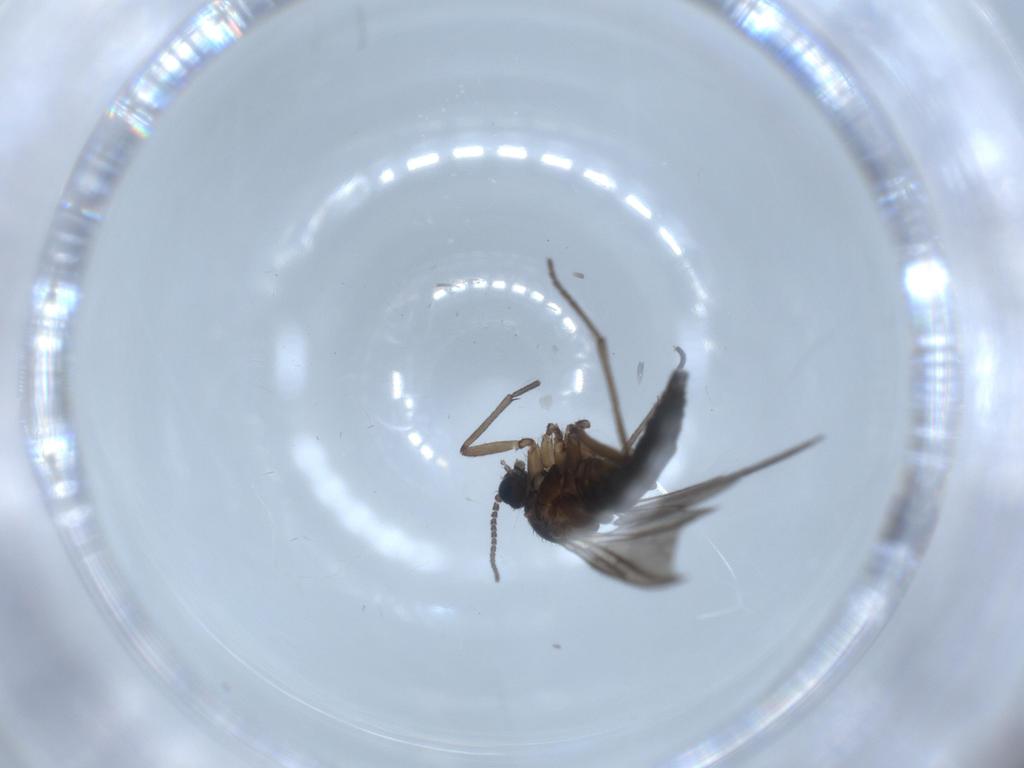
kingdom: Animalia
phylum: Arthropoda
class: Insecta
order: Diptera
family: Sciaridae
